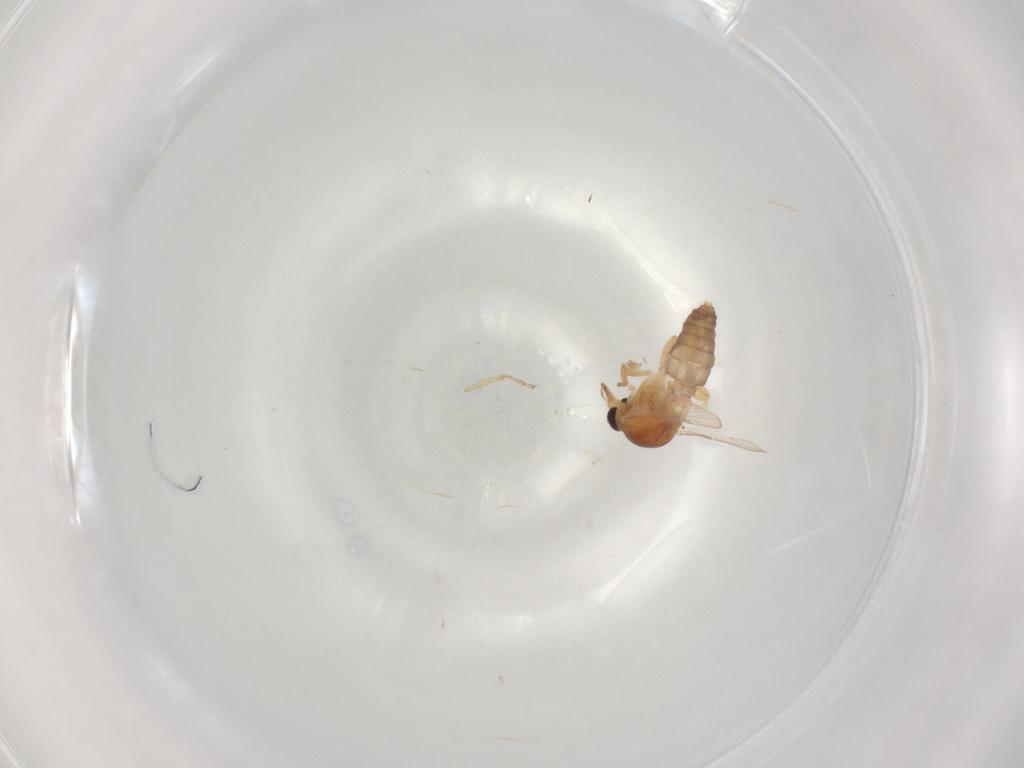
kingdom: Animalia
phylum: Arthropoda
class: Insecta
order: Diptera
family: Ceratopogonidae
